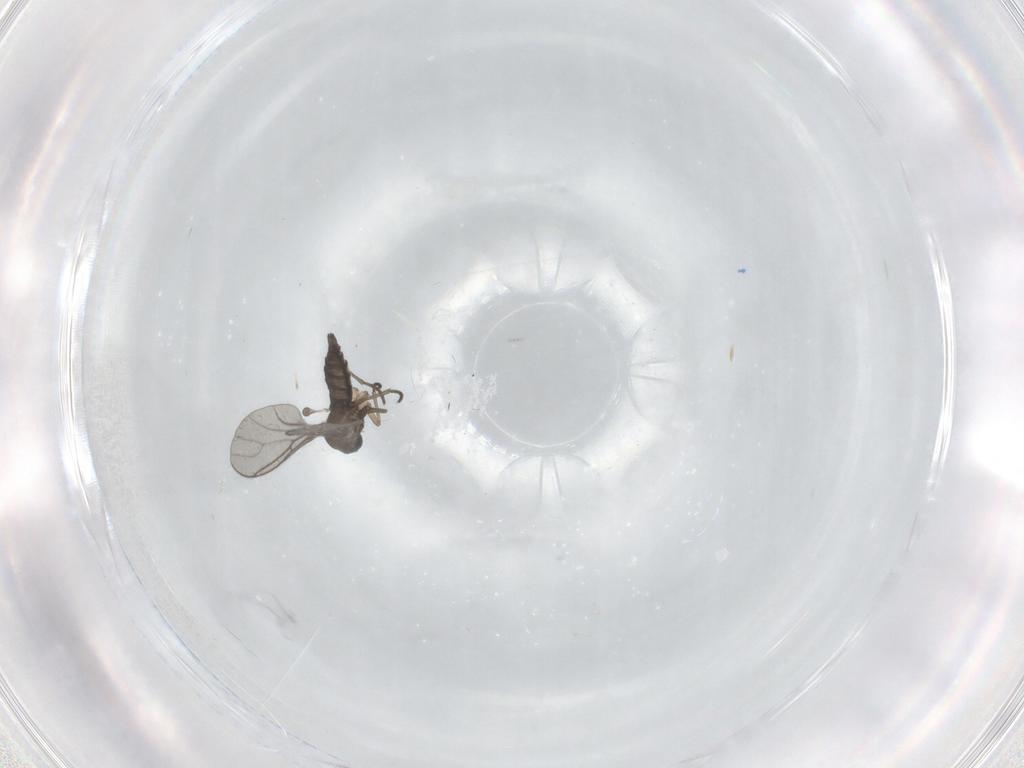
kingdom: Animalia
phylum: Arthropoda
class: Insecta
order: Diptera
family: Sciaridae
